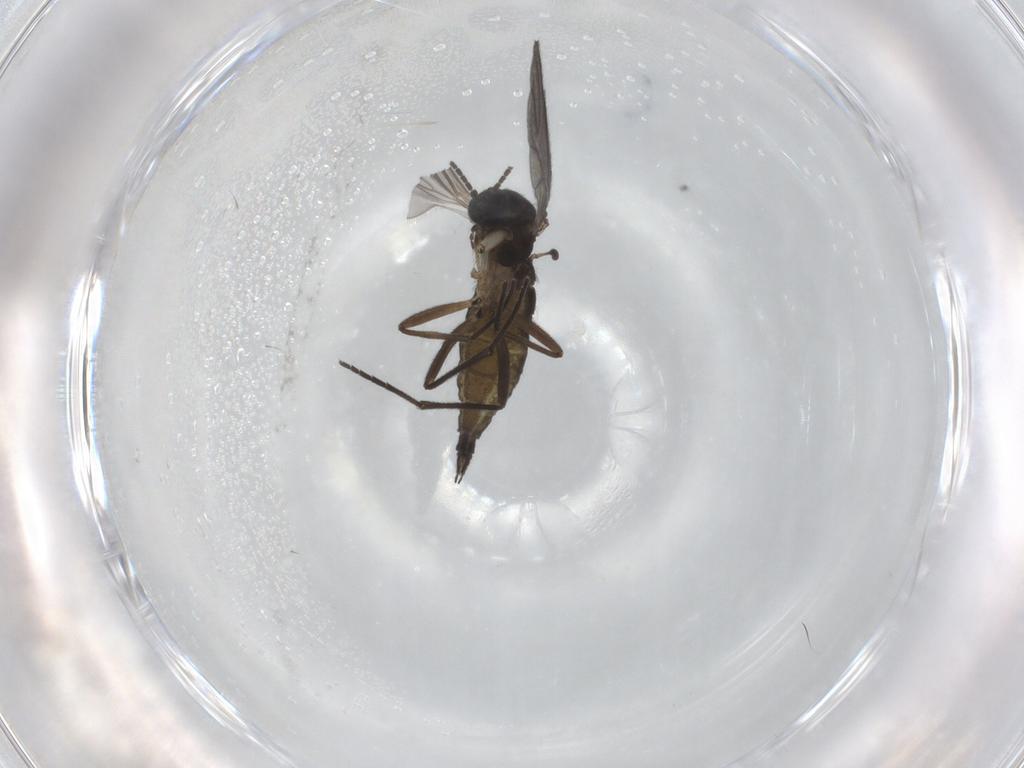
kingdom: Animalia
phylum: Arthropoda
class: Insecta
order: Diptera
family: Sciaridae
